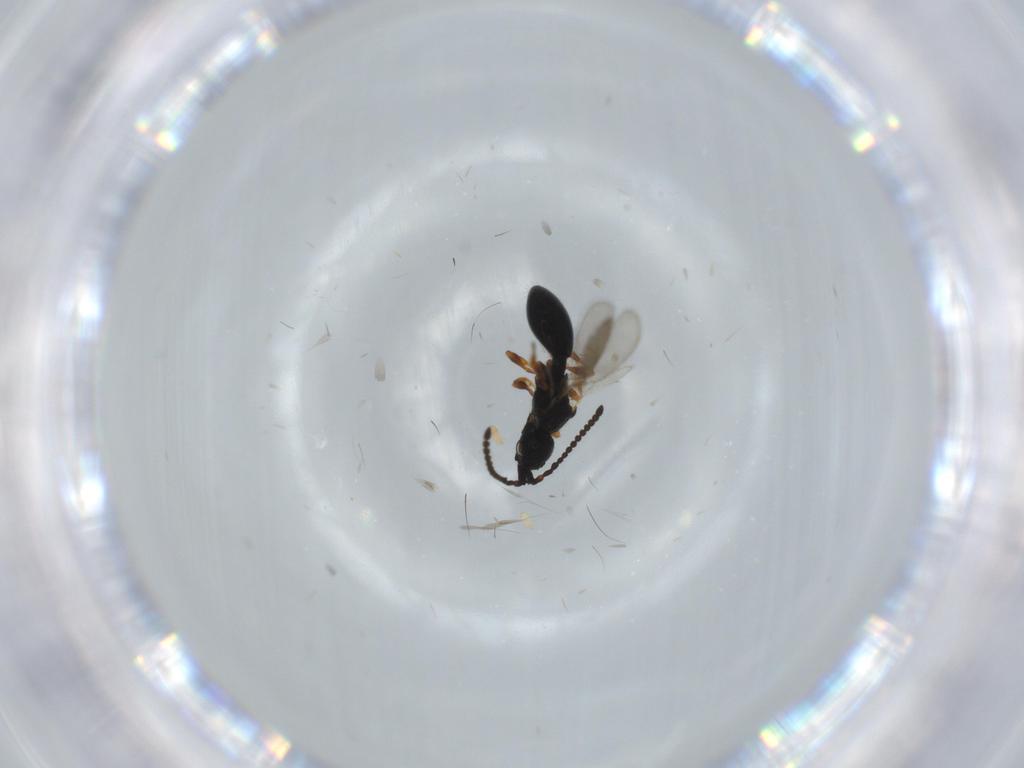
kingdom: Animalia
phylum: Arthropoda
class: Insecta
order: Hymenoptera
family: Diapriidae
